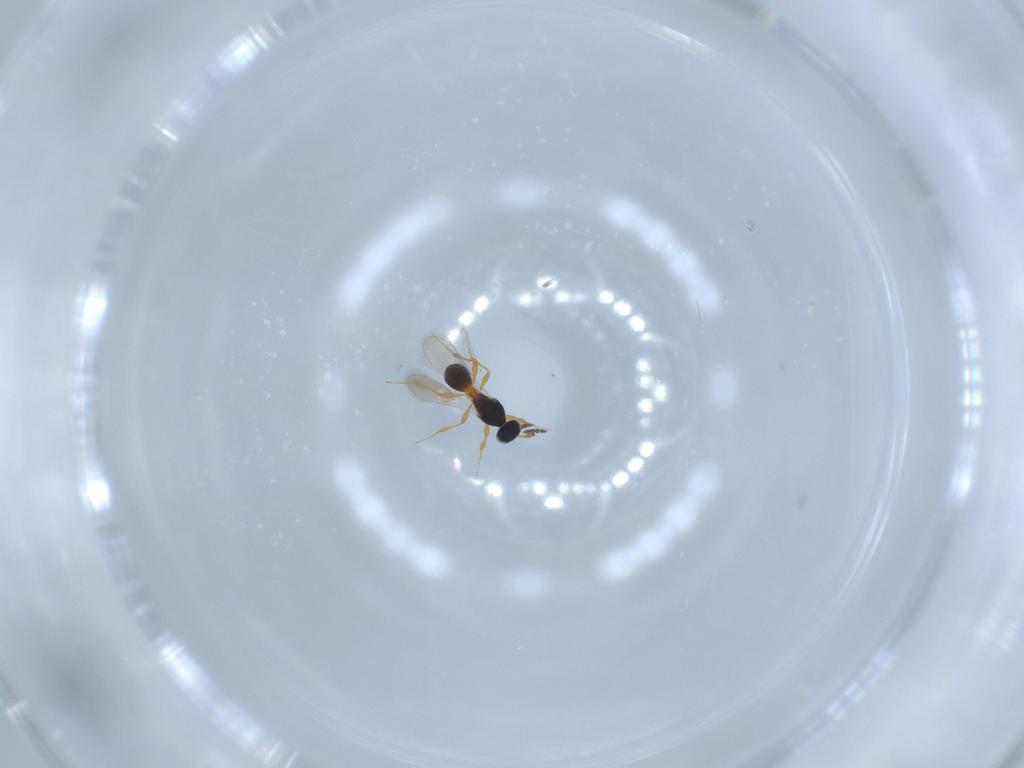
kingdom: Animalia
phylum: Arthropoda
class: Insecta
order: Hymenoptera
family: Platygastridae
